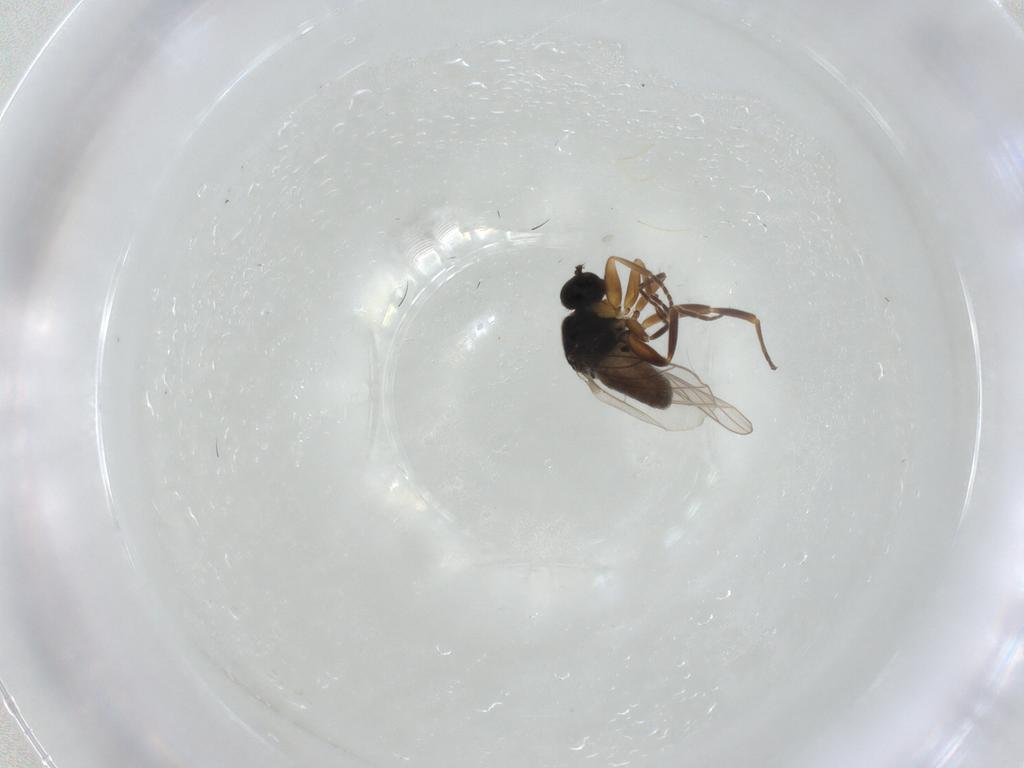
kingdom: Animalia
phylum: Arthropoda
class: Insecta
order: Diptera
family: Hybotidae
